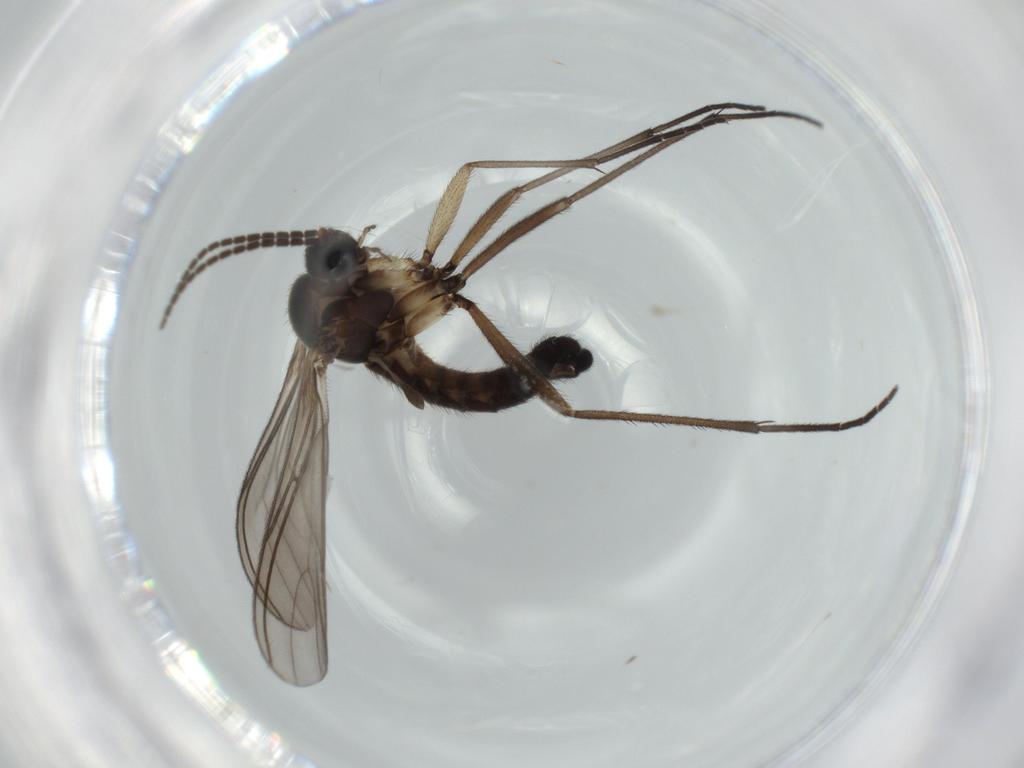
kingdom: Animalia
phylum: Arthropoda
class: Insecta
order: Diptera
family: Sciaridae
